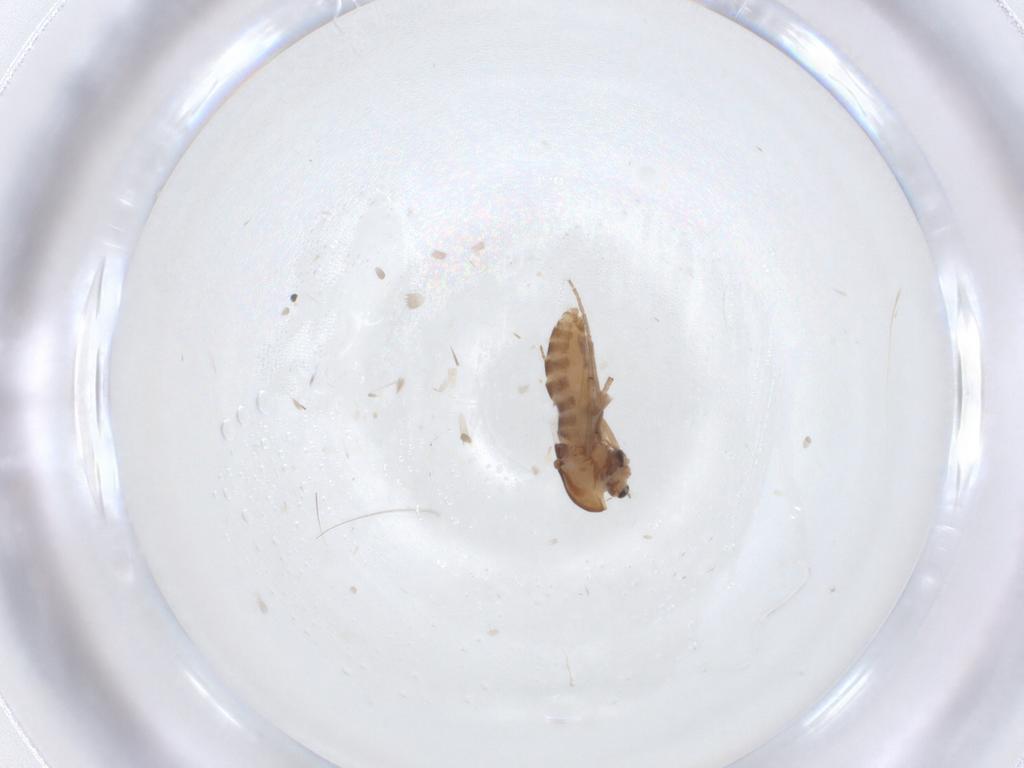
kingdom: Animalia
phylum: Arthropoda
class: Insecta
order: Diptera
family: Chironomidae
